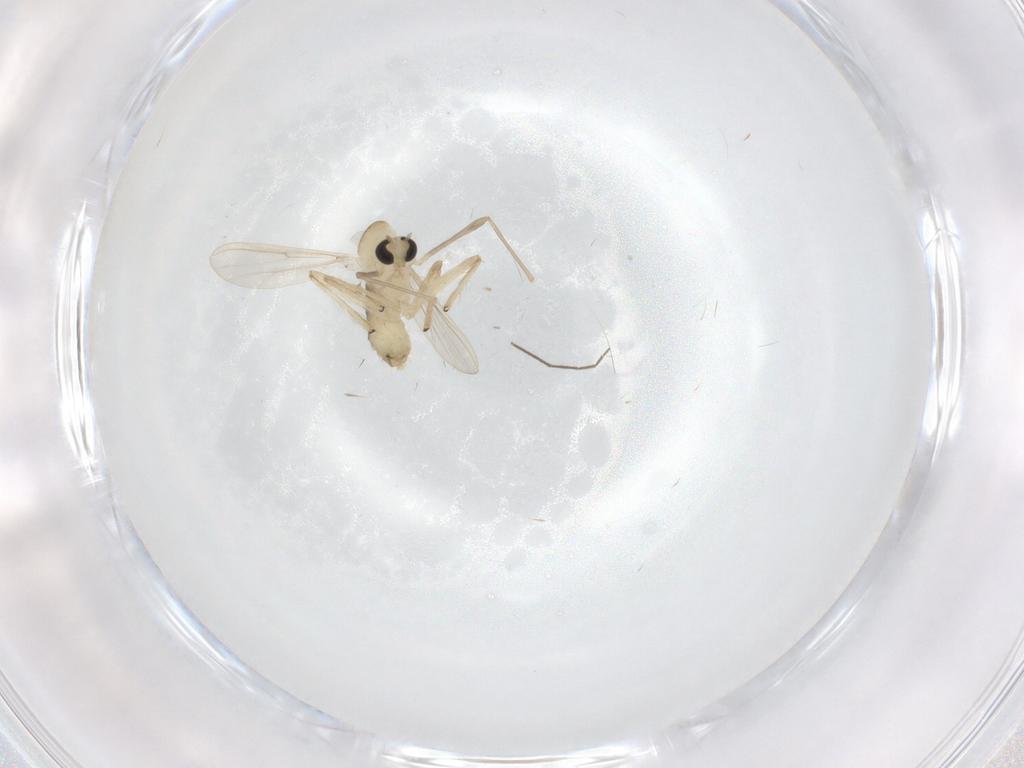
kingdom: Animalia
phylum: Arthropoda
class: Insecta
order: Diptera
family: Chironomidae
